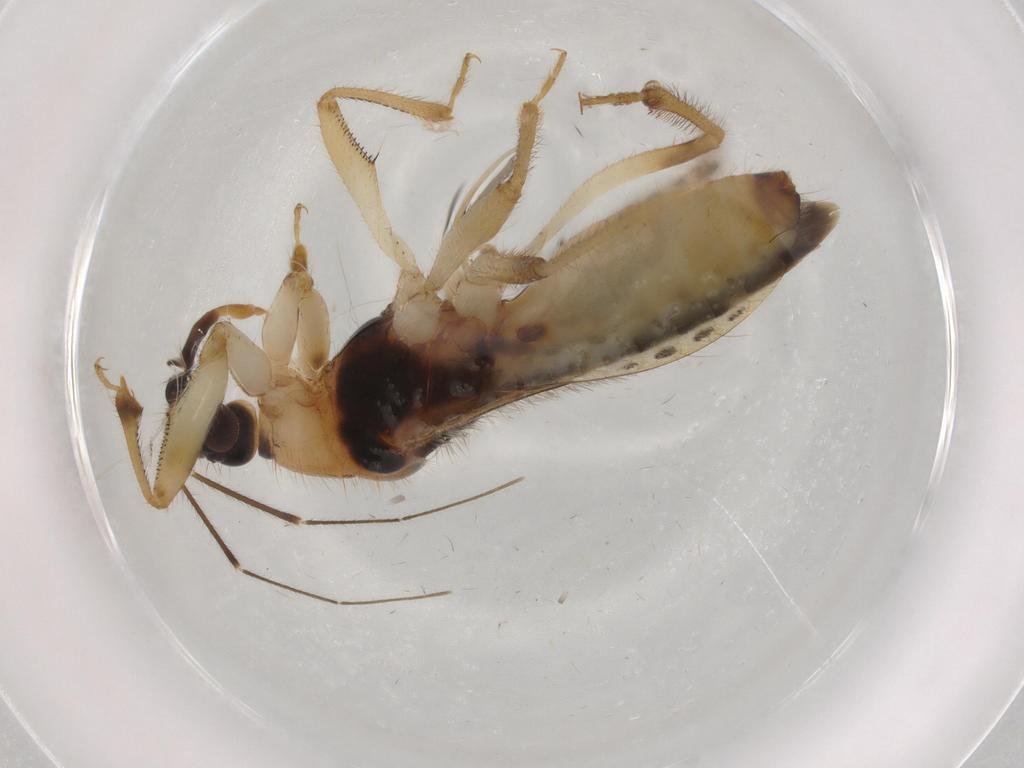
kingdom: Animalia
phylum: Arthropoda
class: Insecta
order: Hemiptera
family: Nabidae
